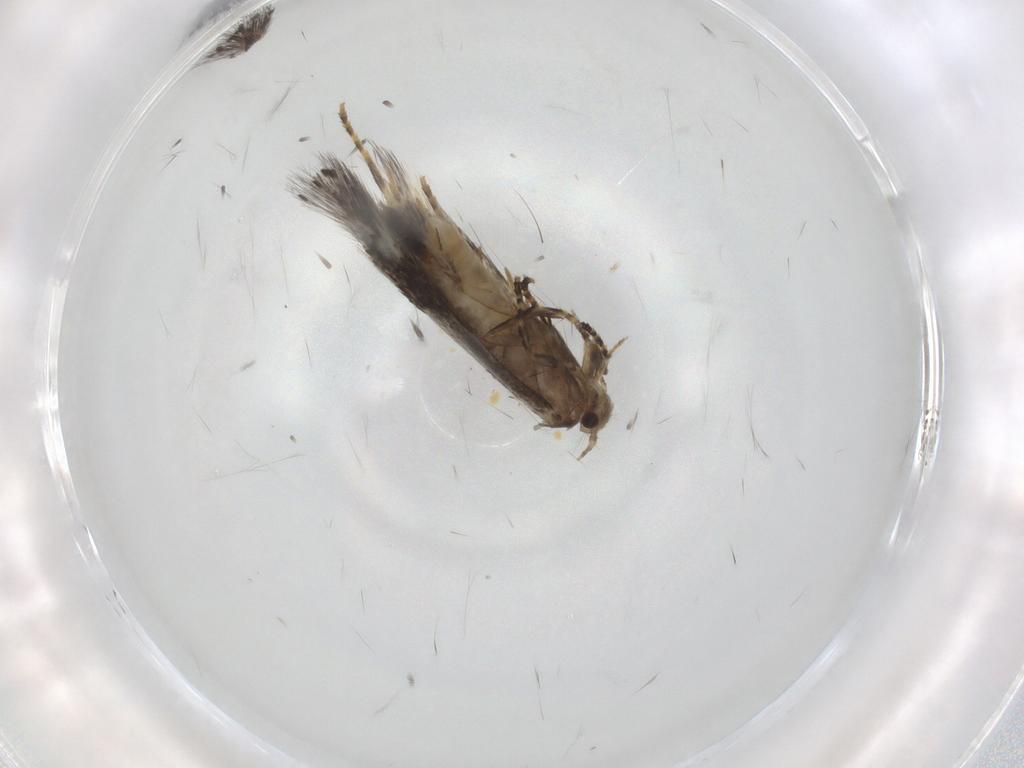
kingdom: Animalia
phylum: Arthropoda
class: Insecta
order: Lepidoptera
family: Elachistidae
